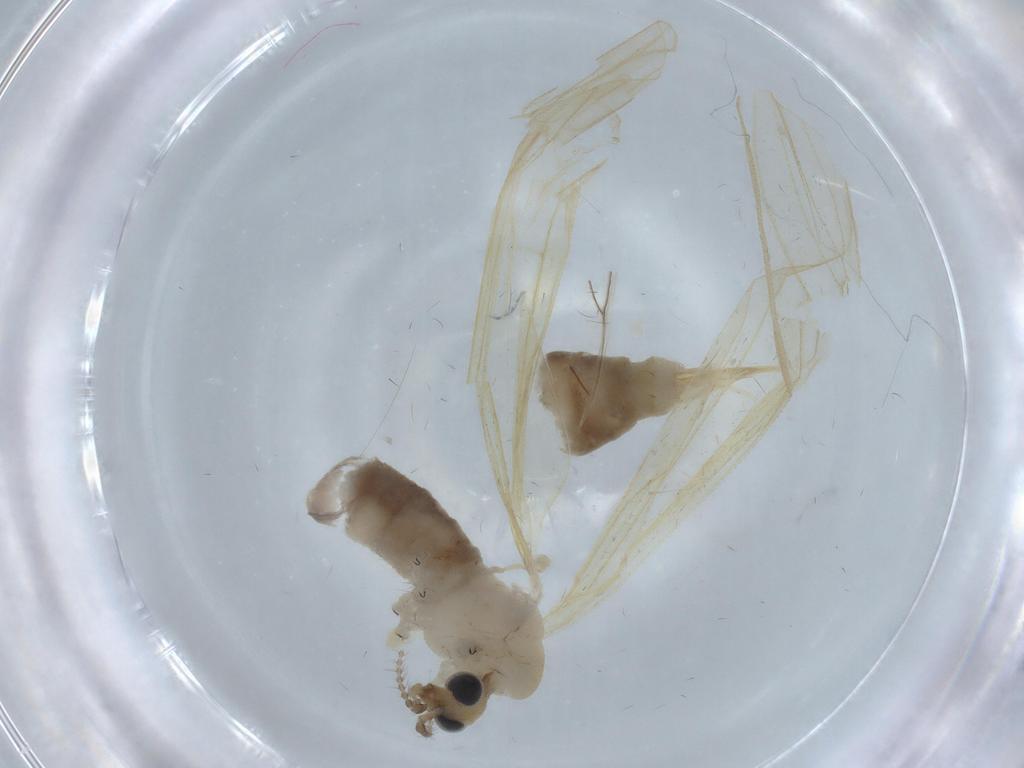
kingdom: Animalia
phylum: Arthropoda
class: Insecta
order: Diptera
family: Limoniidae
